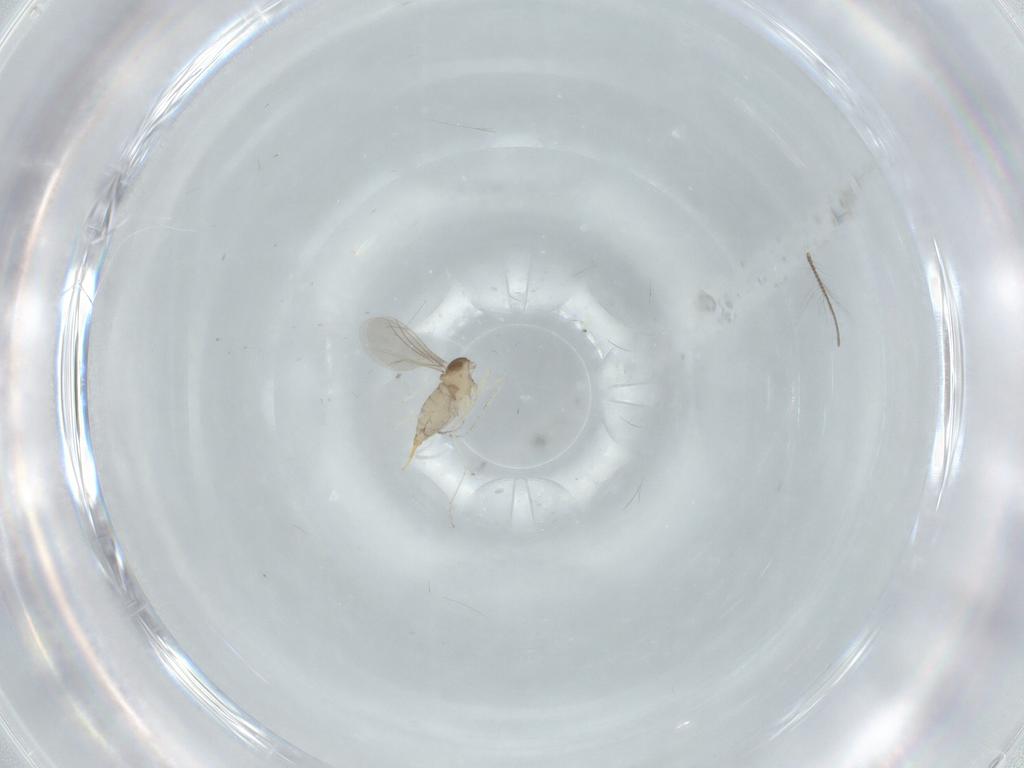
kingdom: Animalia
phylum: Arthropoda
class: Insecta
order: Diptera
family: Cecidomyiidae
